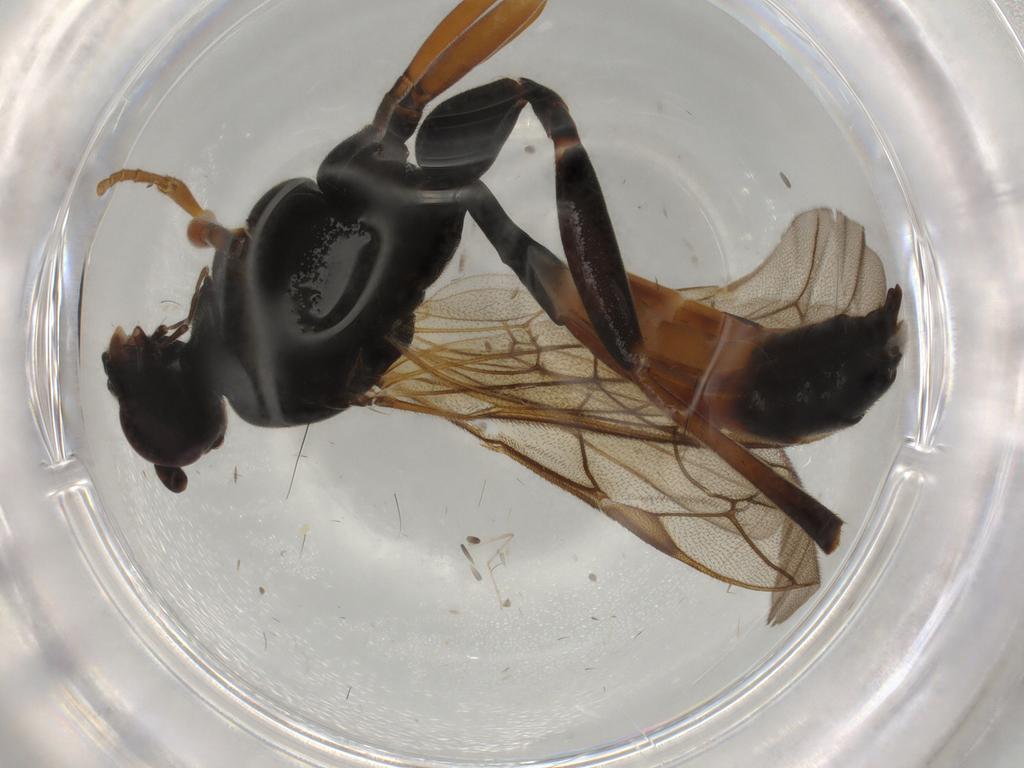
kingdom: Animalia
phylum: Arthropoda
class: Insecta
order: Hymenoptera
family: Ichneumonidae
